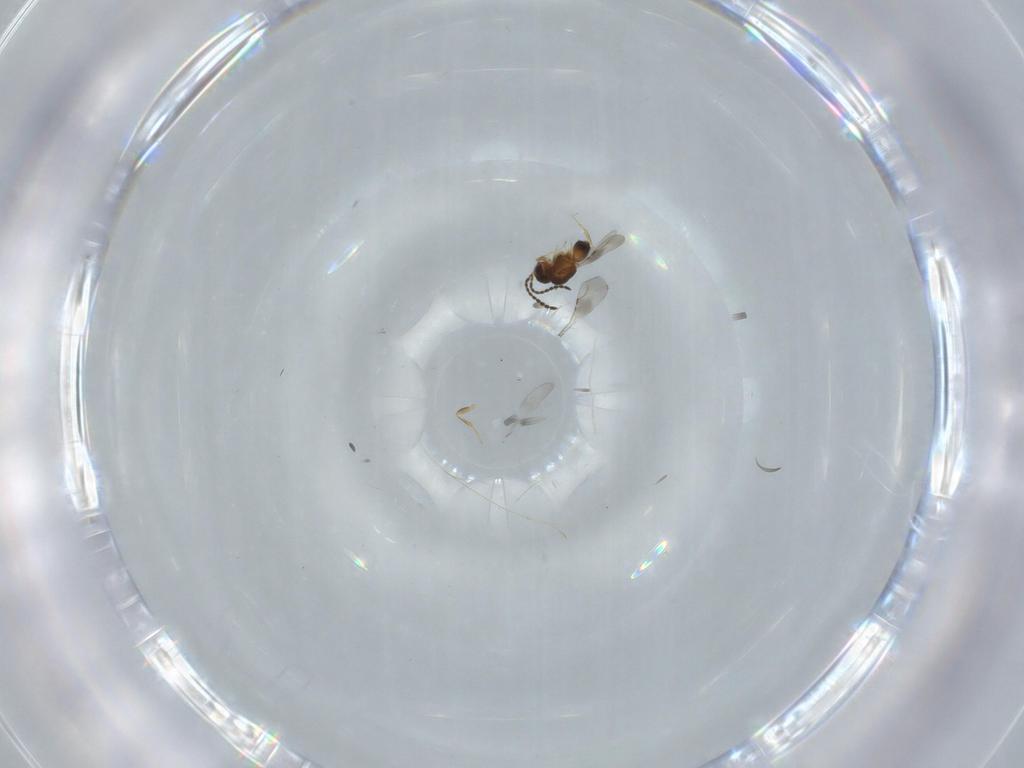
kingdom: Animalia
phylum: Arthropoda
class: Insecta
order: Hymenoptera
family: Ceraphronidae
